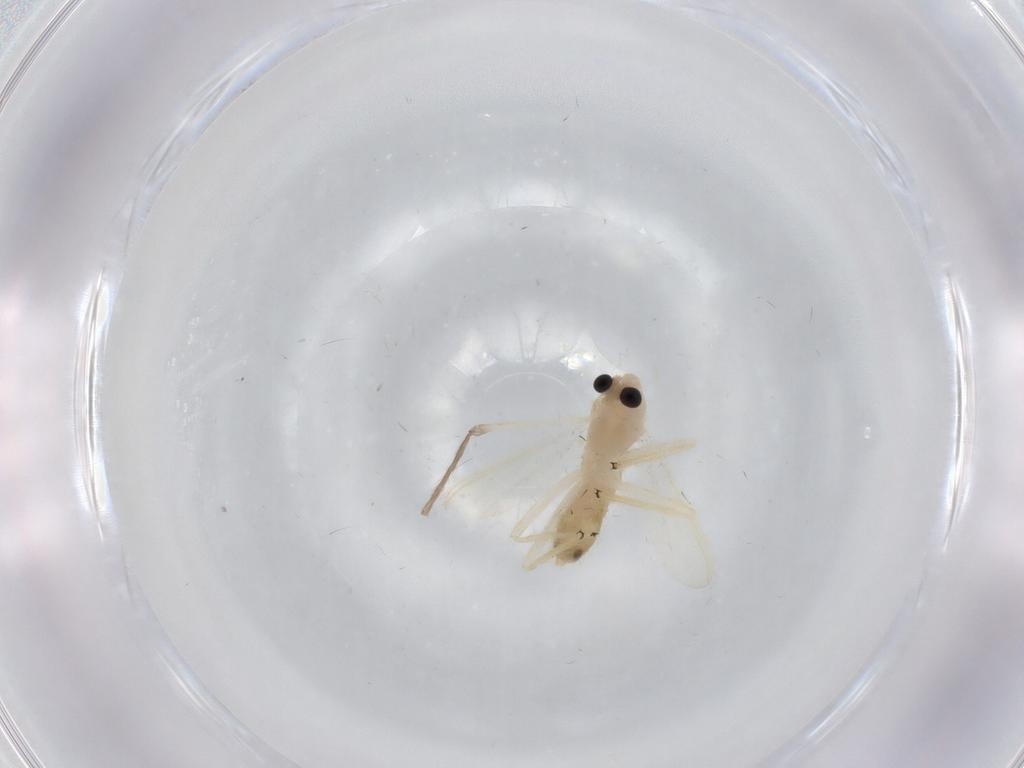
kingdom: Animalia
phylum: Arthropoda
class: Insecta
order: Diptera
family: Chironomidae
